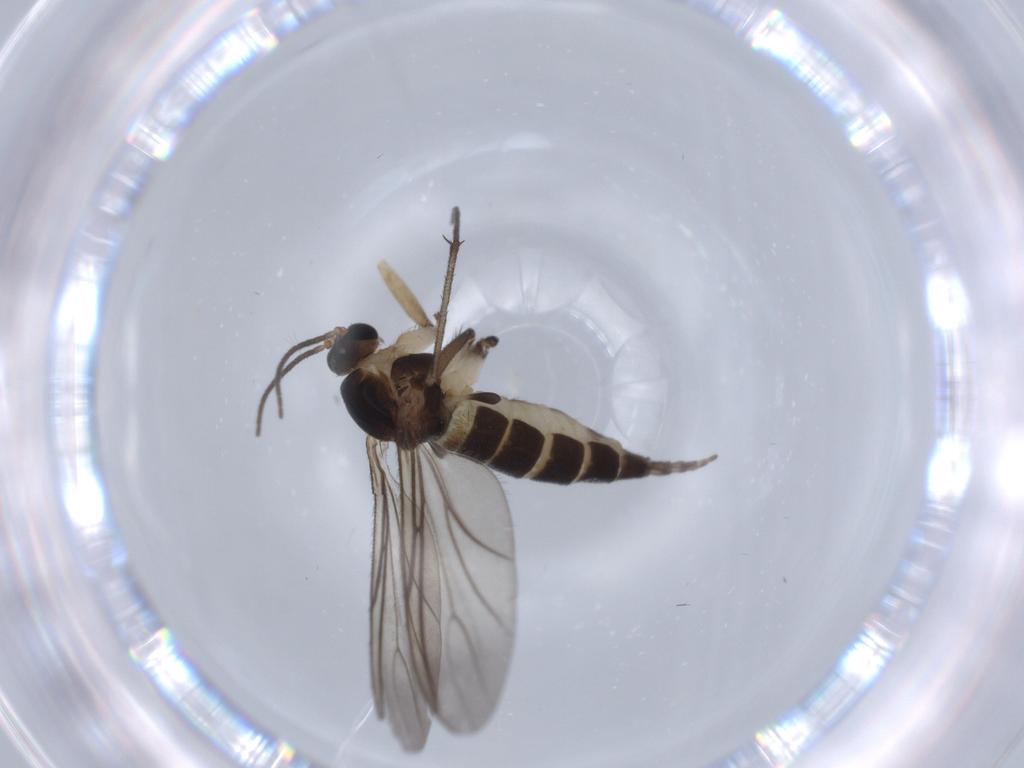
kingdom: Animalia
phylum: Arthropoda
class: Insecta
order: Diptera
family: Sciaridae
